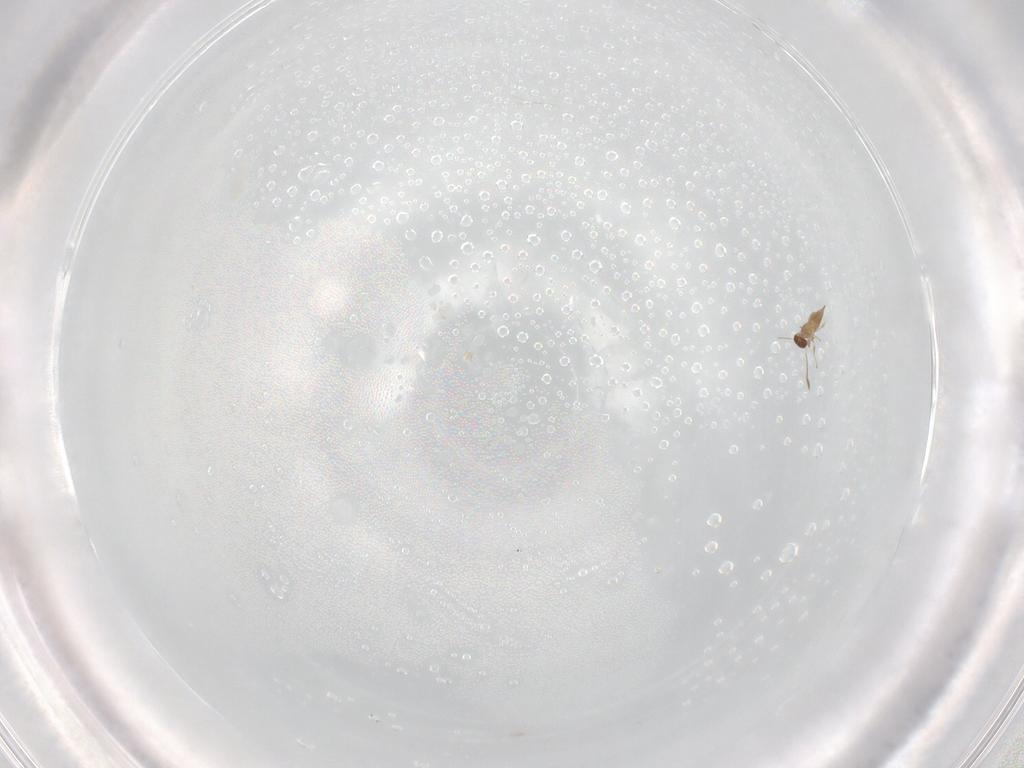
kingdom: Animalia
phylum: Arthropoda
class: Insecta
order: Hymenoptera
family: Mymaridae
